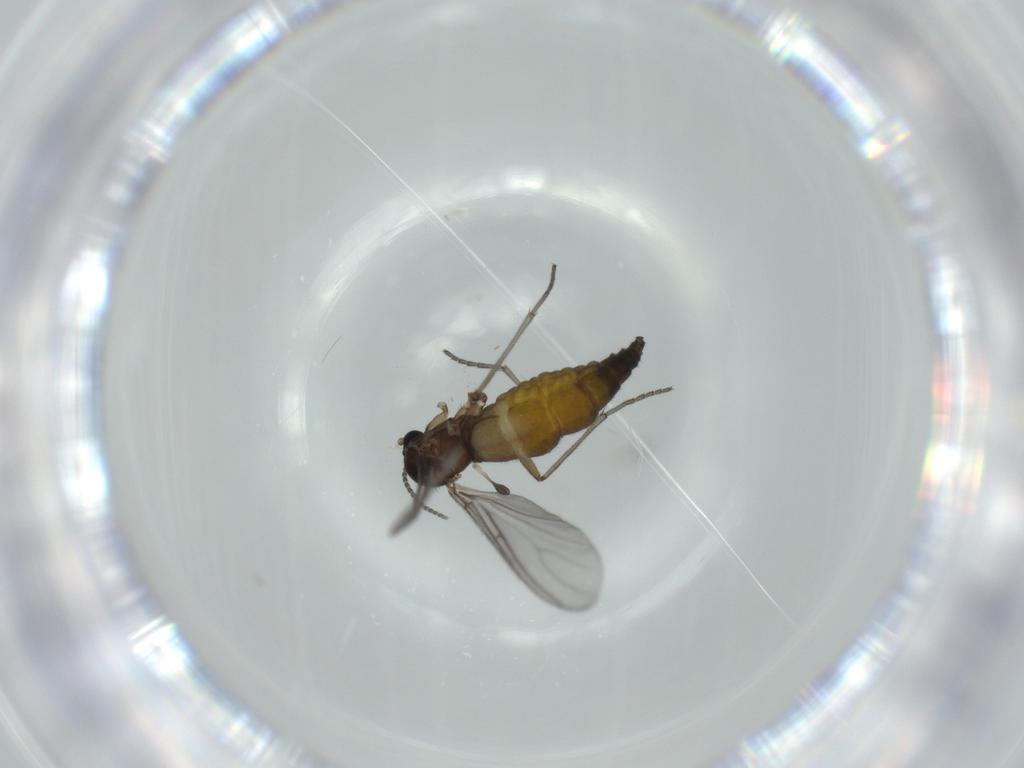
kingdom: Animalia
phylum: Arthropoda
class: Insecta
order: Diptera
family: Sciaridae
